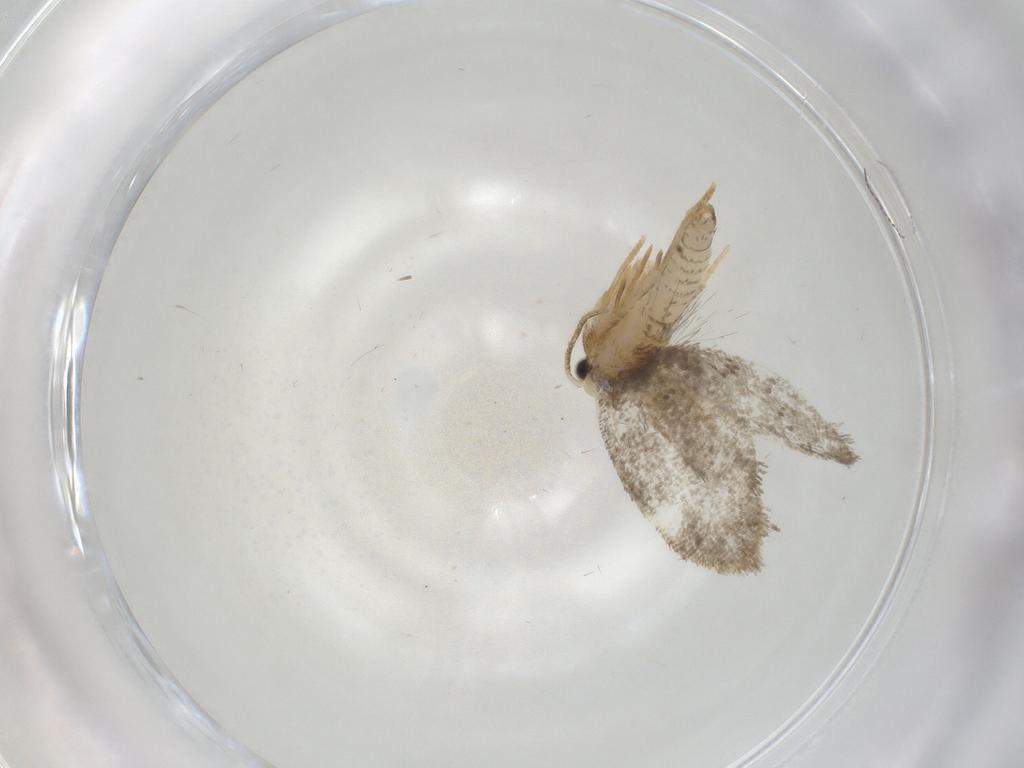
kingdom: Animalia
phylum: Arthropoda
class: Insecta
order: Lepidoptera
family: Psychidae
